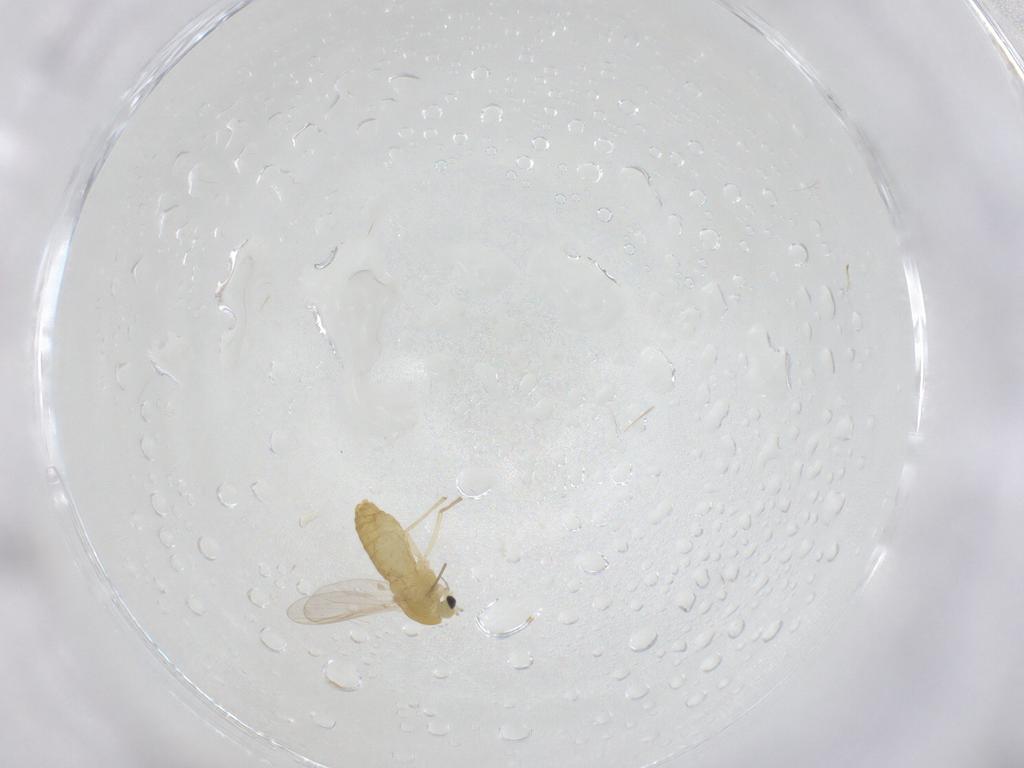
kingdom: Animalia
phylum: Arthropoda
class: Insecta
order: Diptera
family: Chironomidae
